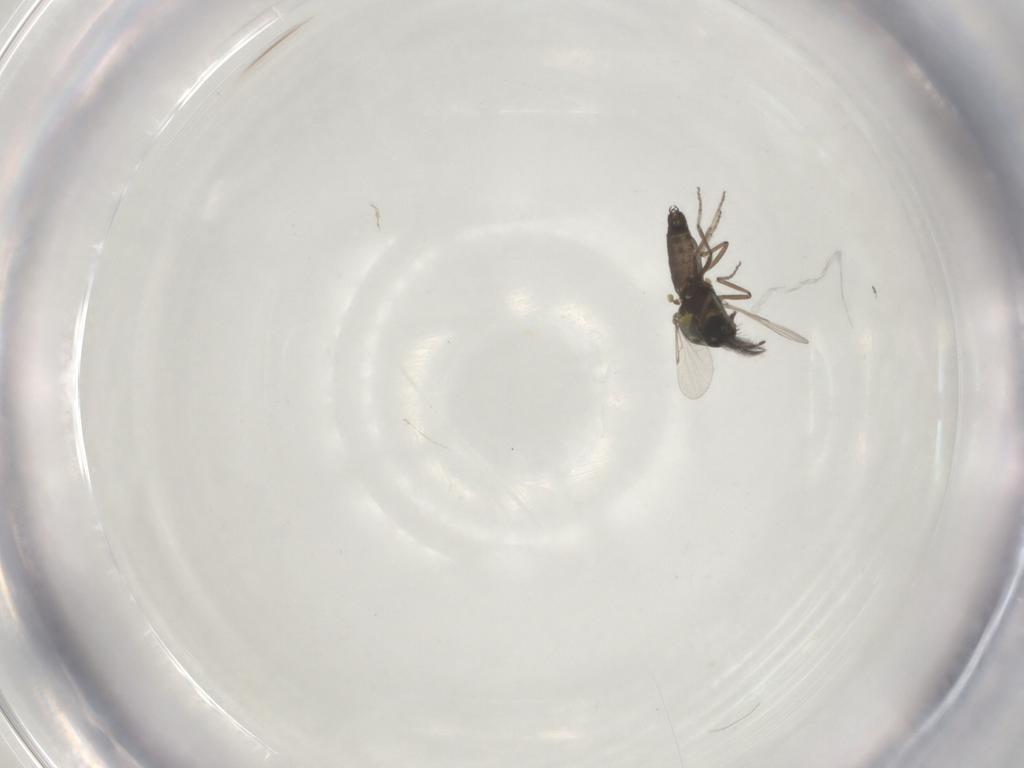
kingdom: Animalia
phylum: Arthropoda
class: Insecta
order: Diptera
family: Ceratopogonidae
